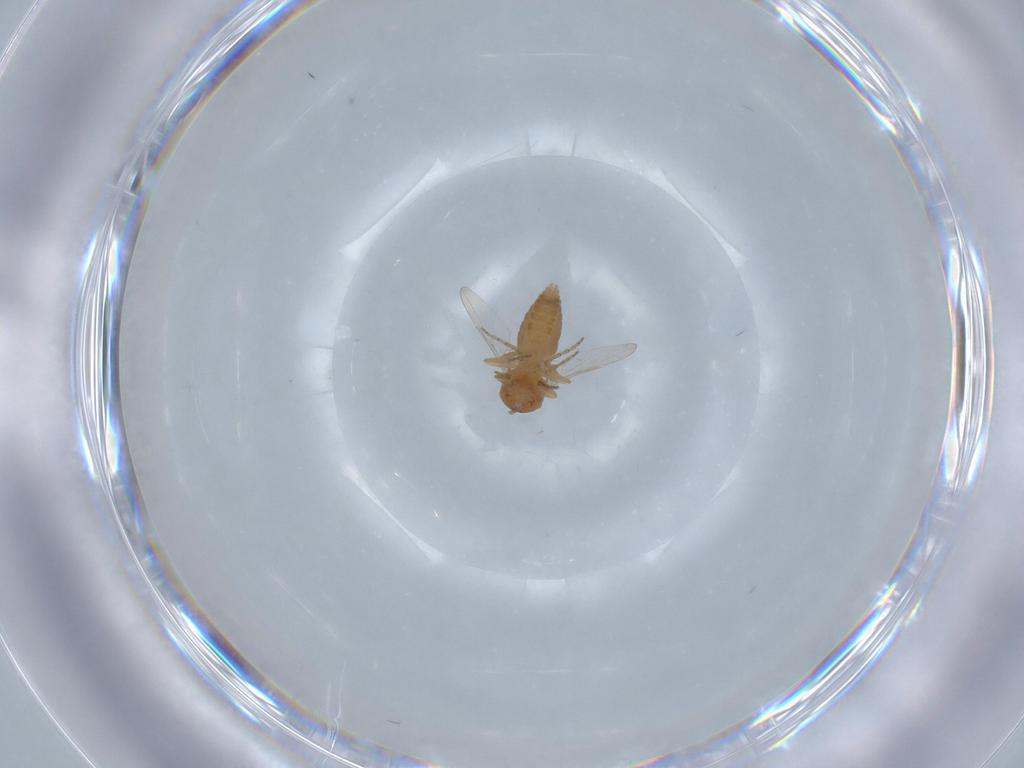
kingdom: Animalia
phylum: Arthropoda
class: Insecta
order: Diptera
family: Ceratopogonidae
